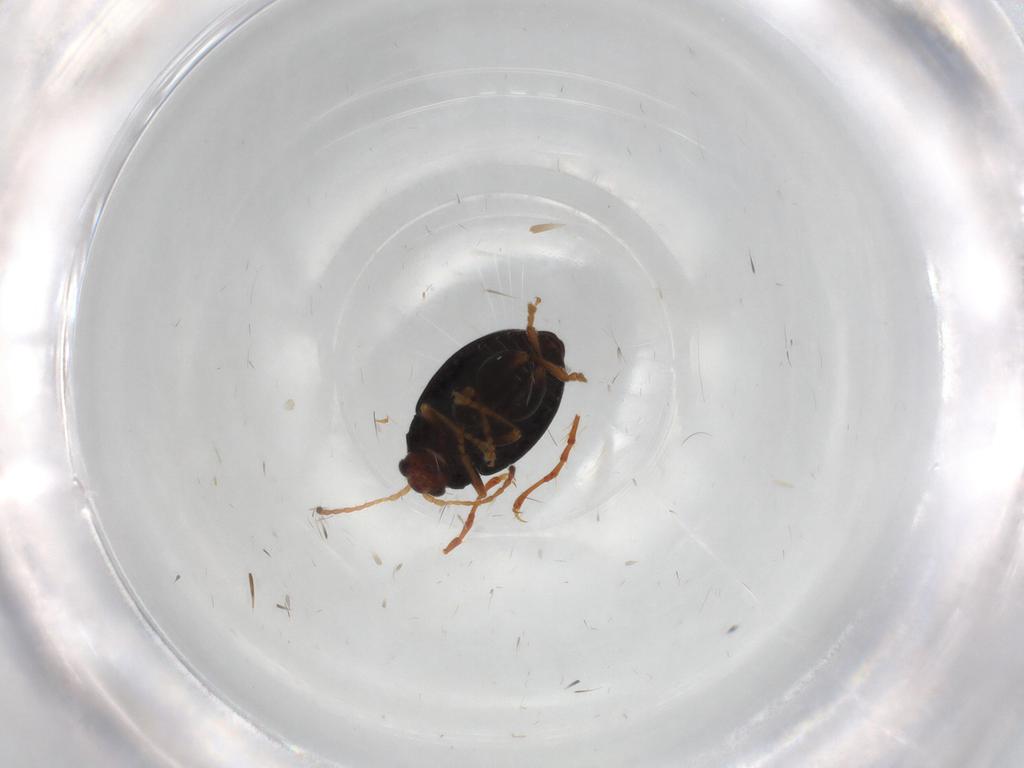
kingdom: Animalia
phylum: Arthropoda
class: Insecta
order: Coleoptera
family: Curculionidae
